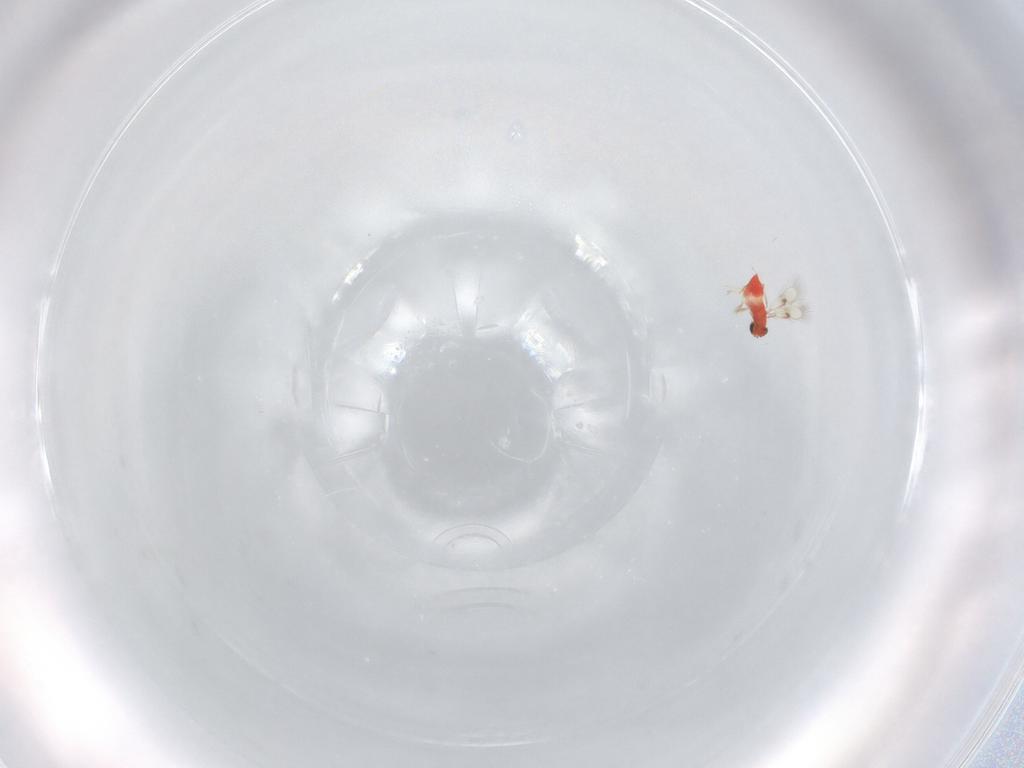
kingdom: Animalia
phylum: Arthropoda
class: Insecta
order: Hymenoptera
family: Trichogrammatidae
